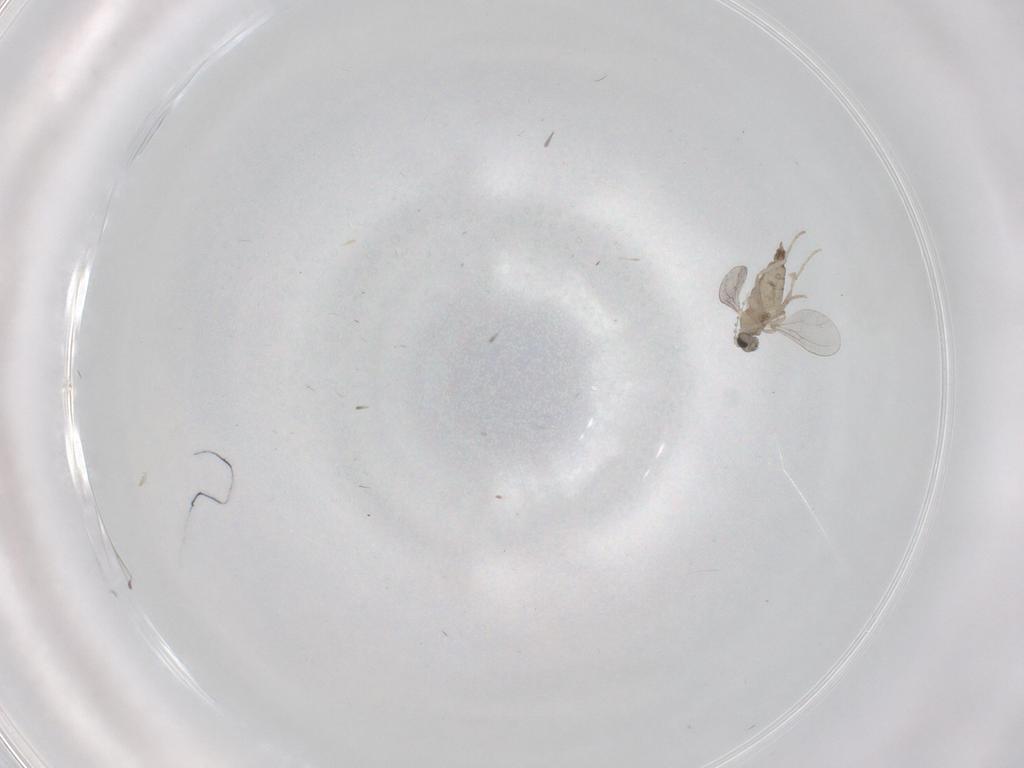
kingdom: Animalia
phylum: Arthropoda
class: Insecta
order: Diptera
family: Cecidomyiidae
